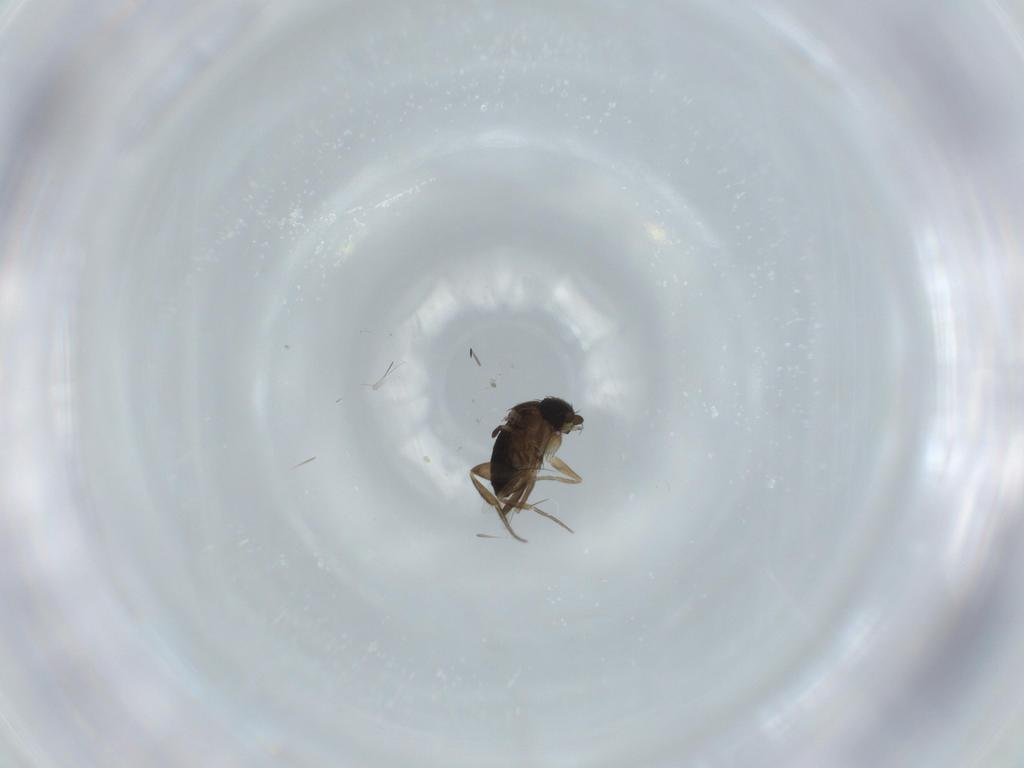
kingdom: Animalia
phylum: Arthropoda
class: Insecta
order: Diptera
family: Phoridae
